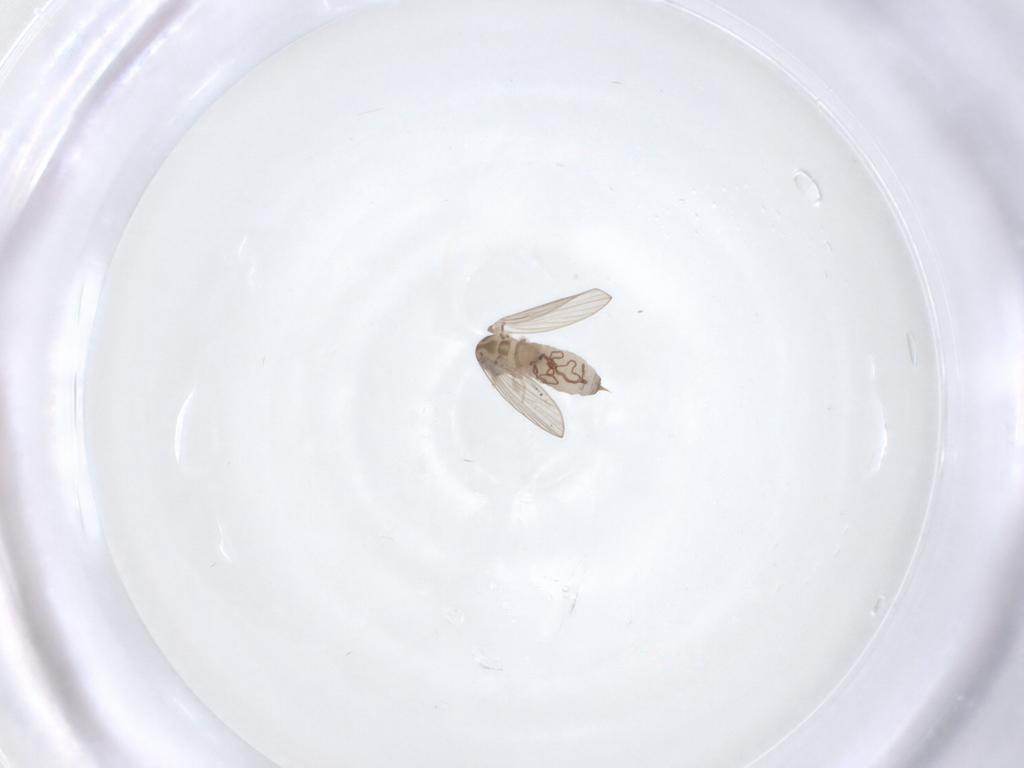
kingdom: Animalia
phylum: Arthropoda
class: Insecta
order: Diptera
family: Psychodidae
